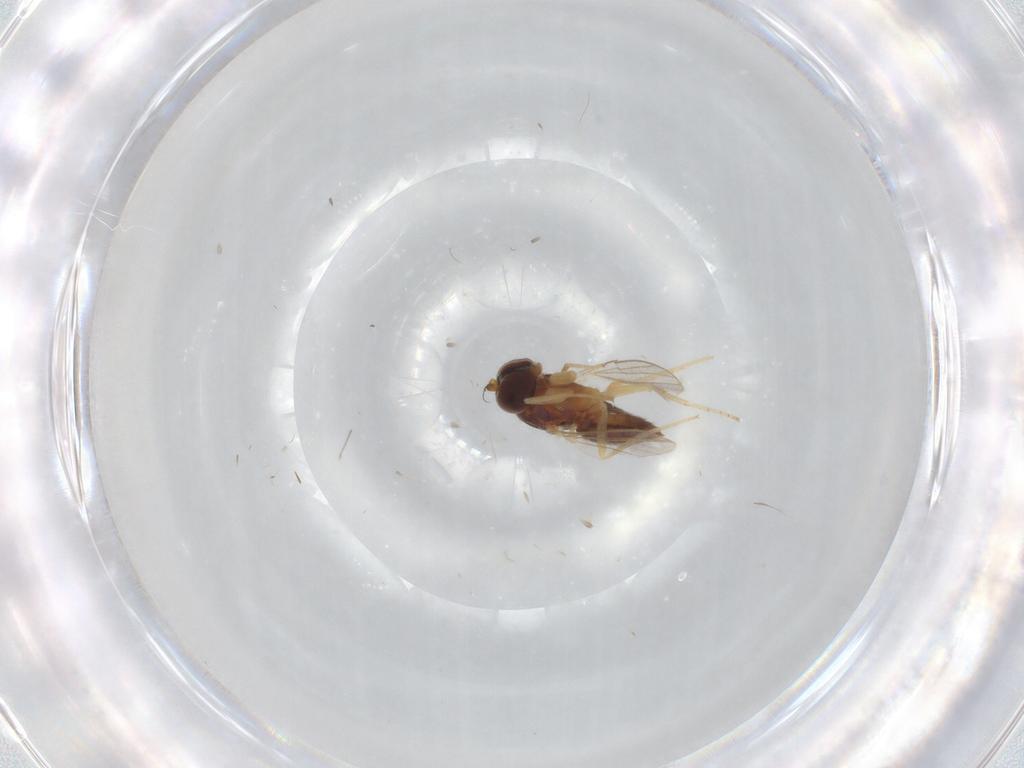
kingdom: Animalia
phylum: Arthropoda
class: Insecta
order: Diptera
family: Dolichopodidae
